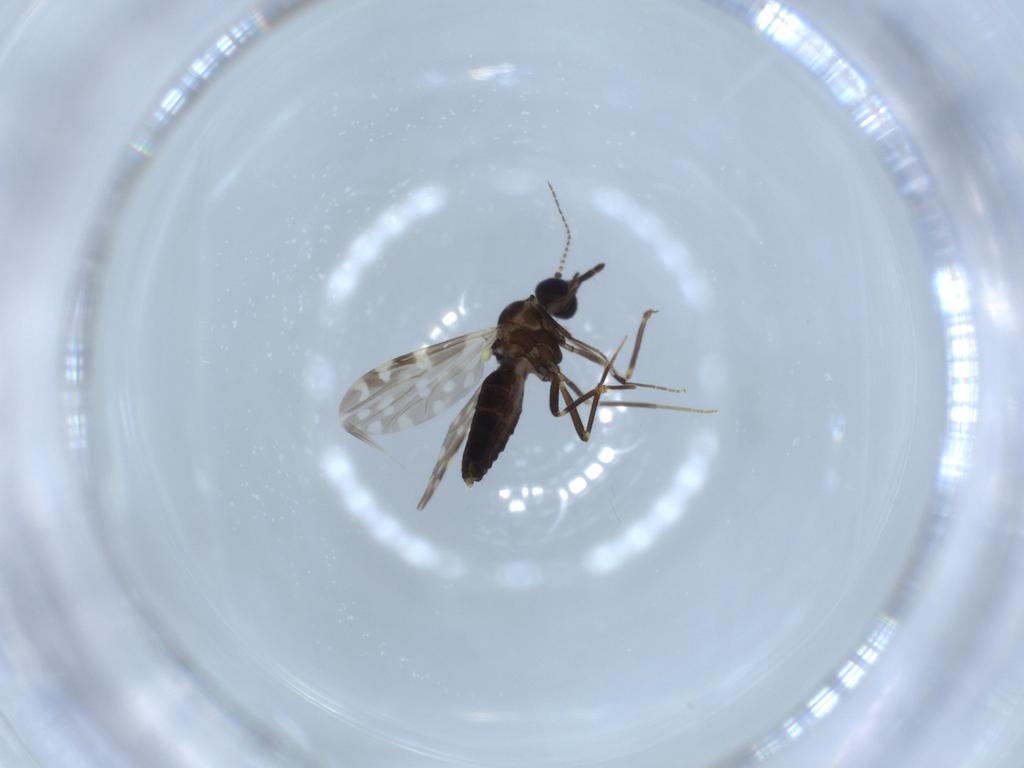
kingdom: Animalia
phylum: Arthropoda
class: Insecta
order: Diptera
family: Ceratopogonidae
